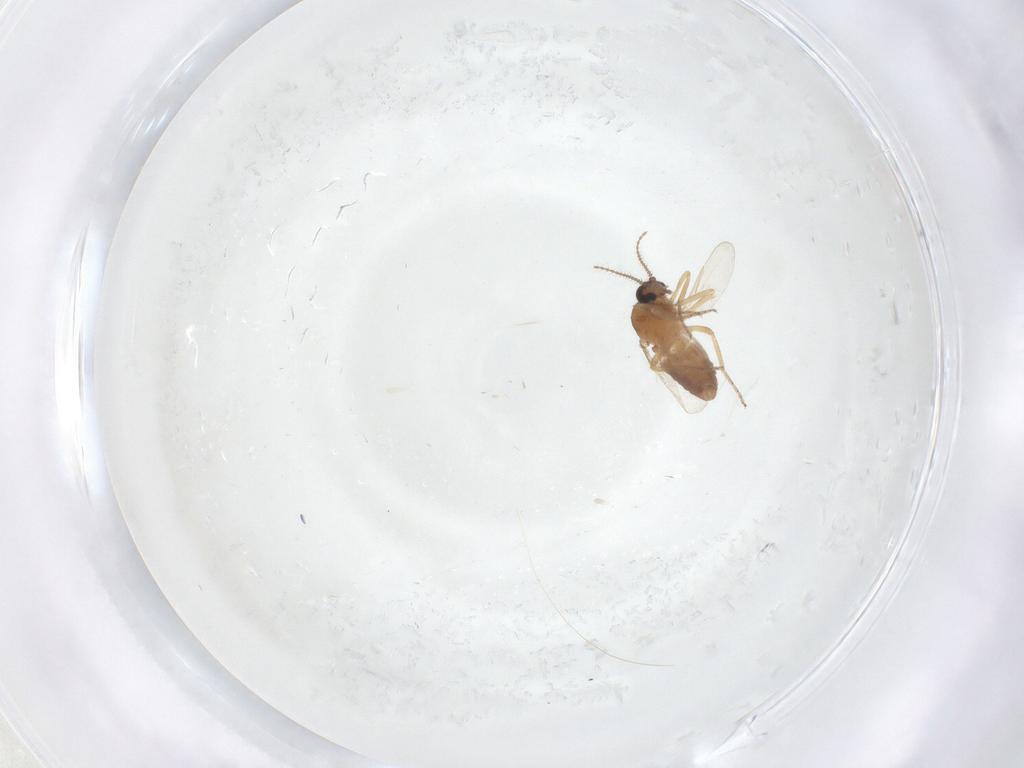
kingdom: Animalia
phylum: Arthropoda
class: Insecta
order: Diptera
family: Ceratopogonidae
